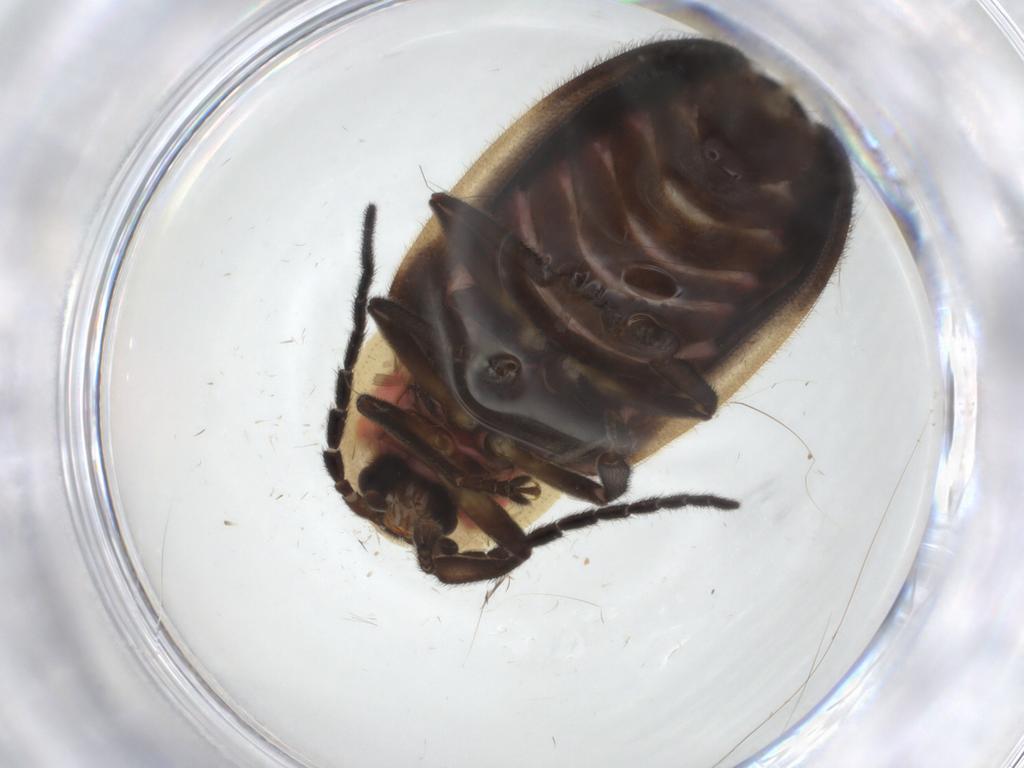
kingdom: Animalia
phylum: Arthropoda
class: Insecta
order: Coleoptera
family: Lampyridae
